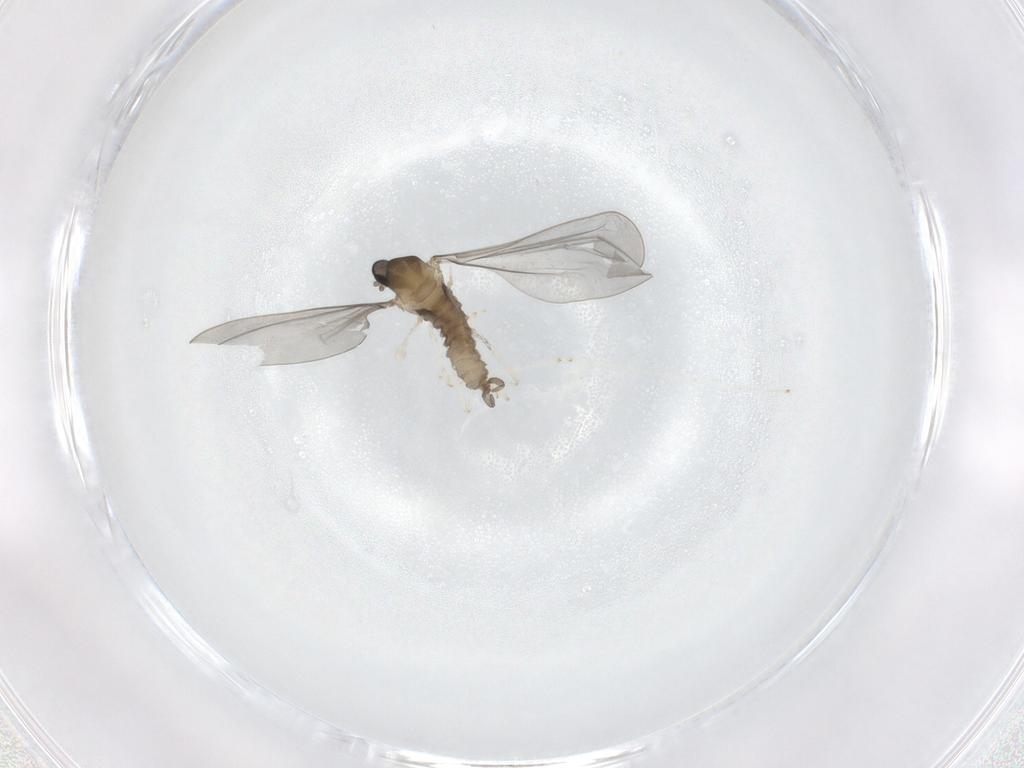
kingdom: Animalia
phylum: Arthropoda
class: Insecta
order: Diptera
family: Cecidomyiidae
